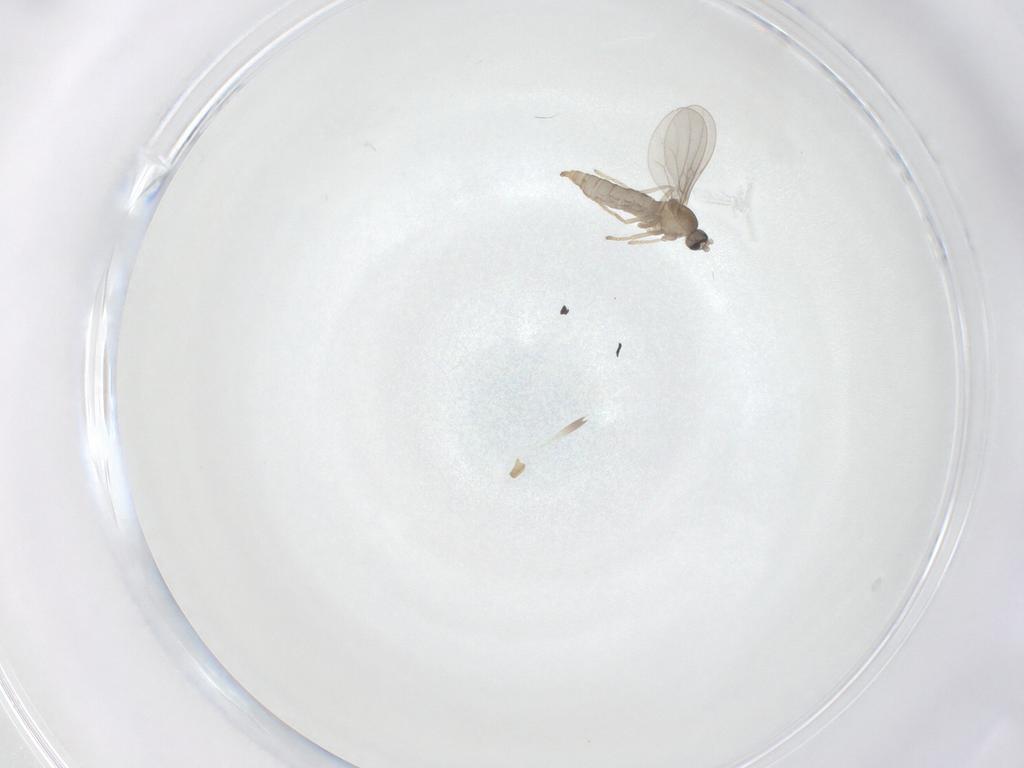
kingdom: Animalia
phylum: Arthropoda
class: Insecta
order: Diptera
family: Cecidomyiidae
